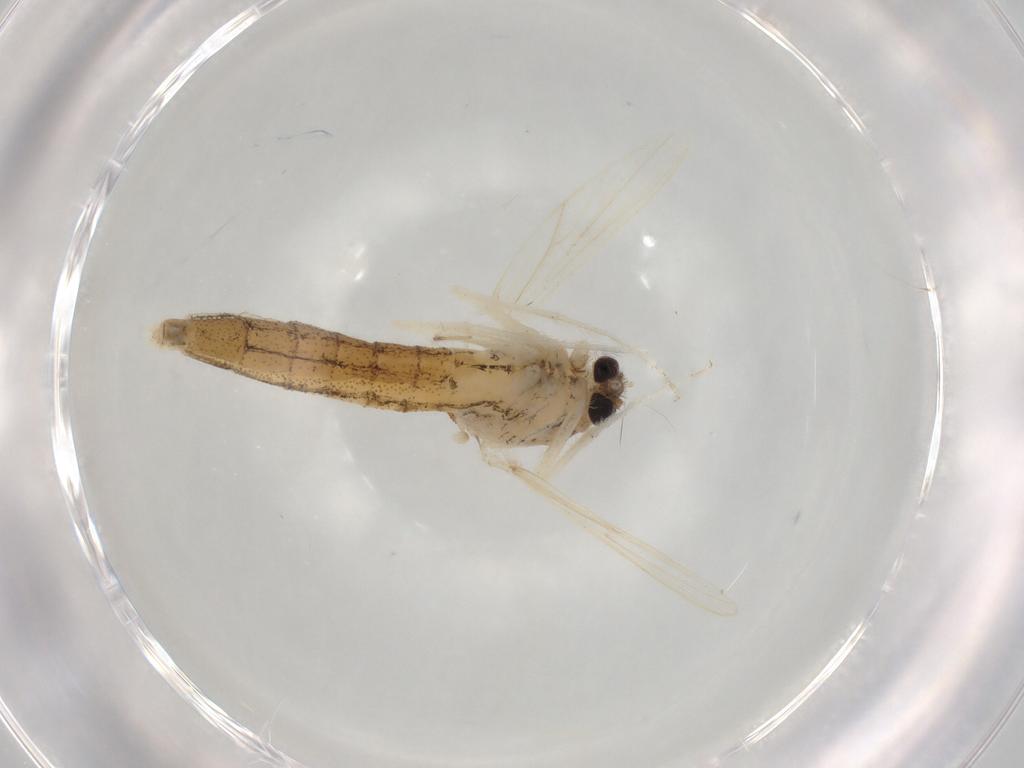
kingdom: Animalia
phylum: Arthropoda
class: Insecta
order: Diptera
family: Chaoboridae
